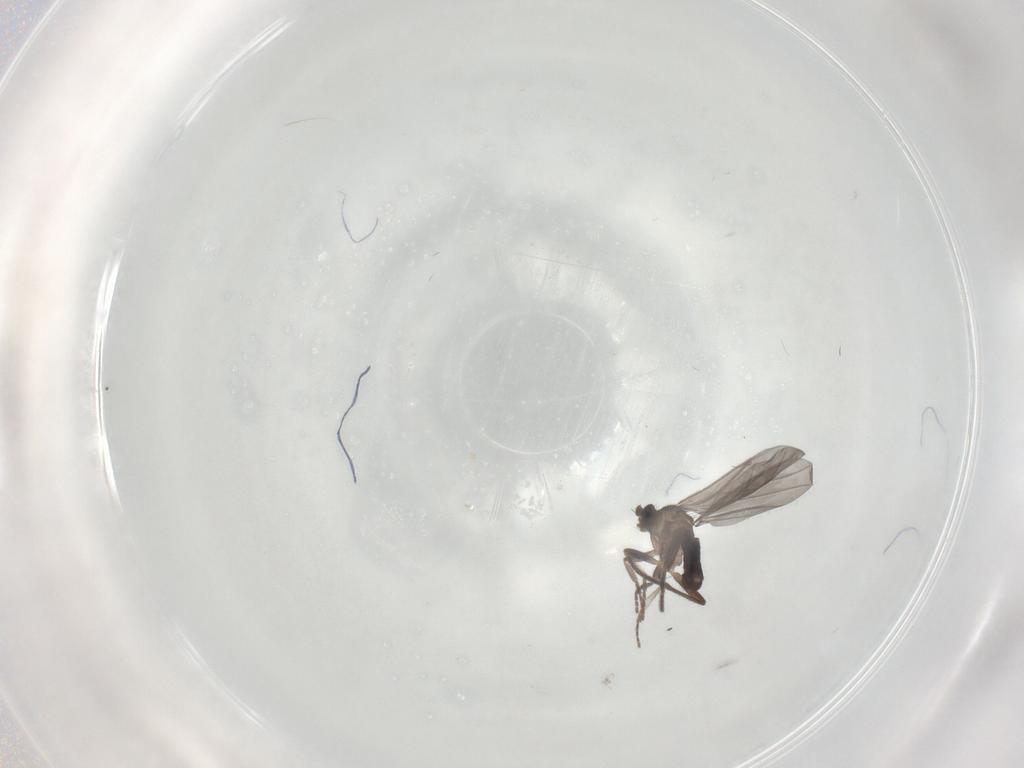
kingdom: Animalia
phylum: Arthropoda
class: Insecta
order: Diptera
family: Phoridae
